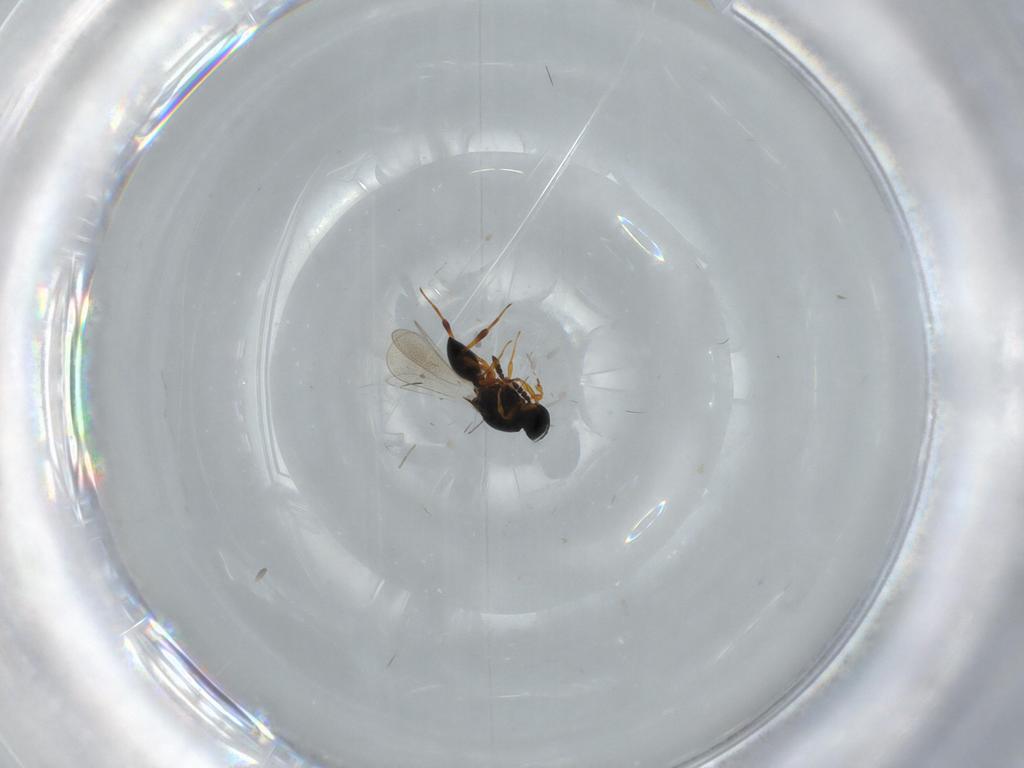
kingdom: Animalia
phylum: Arthropoda
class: Insecta
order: Hymenoptera
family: Platygastridae
